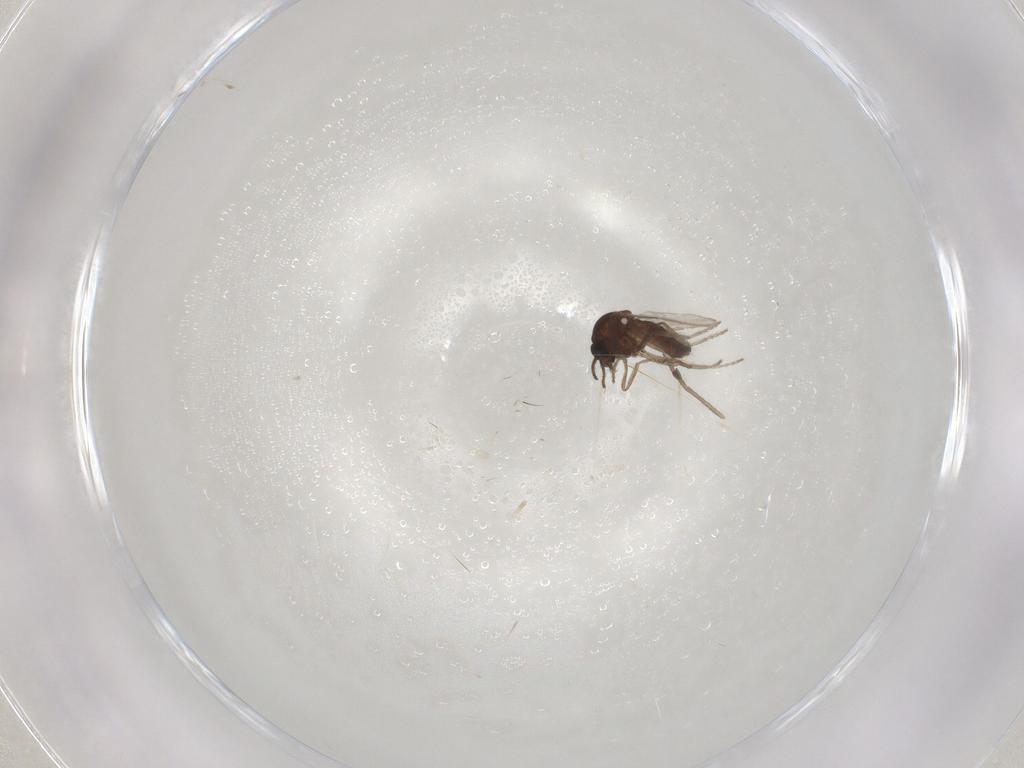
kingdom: Animalia
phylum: Arthropoda
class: Insecta
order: Diptera
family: Ceratopogonidae
